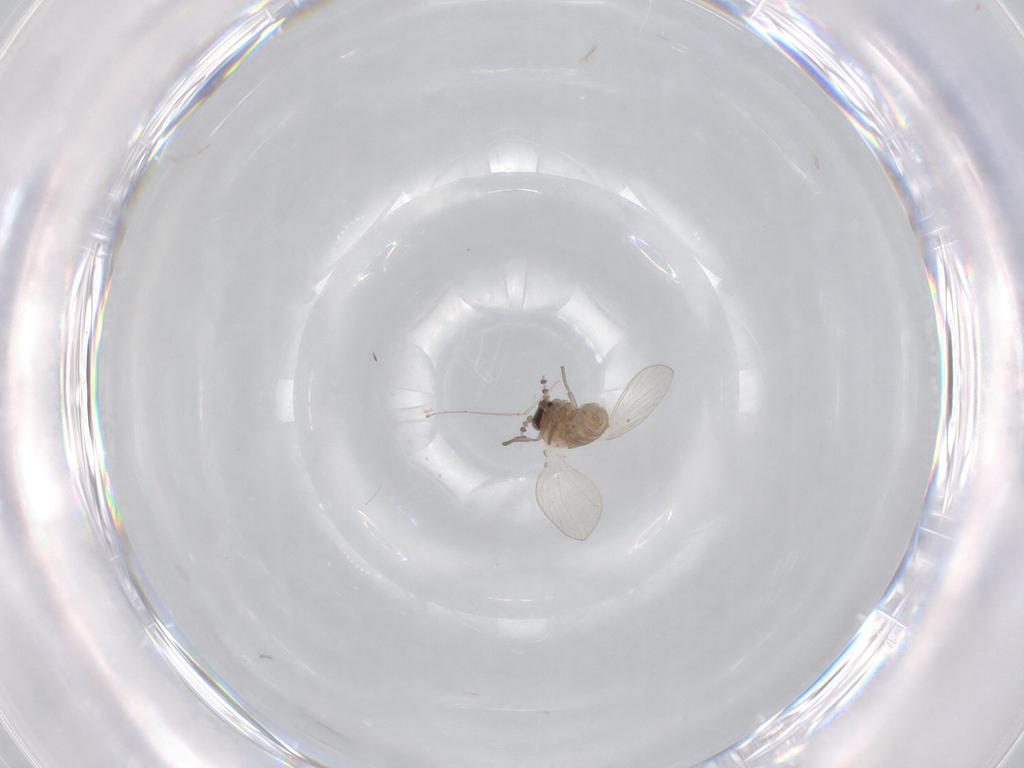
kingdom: Animalia
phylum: Arthropoda
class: Insecta
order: Diptera
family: Psychodidae
